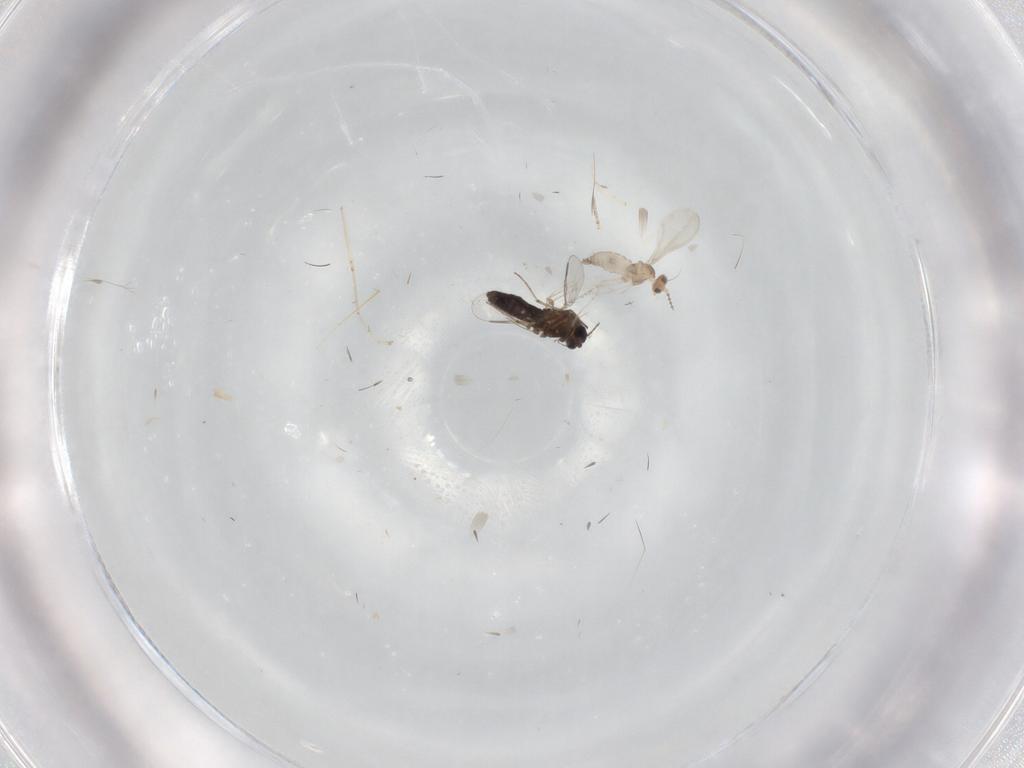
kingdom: Animalia
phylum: Arthropoda
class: Insecta
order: Diptera
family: Chironomidae
